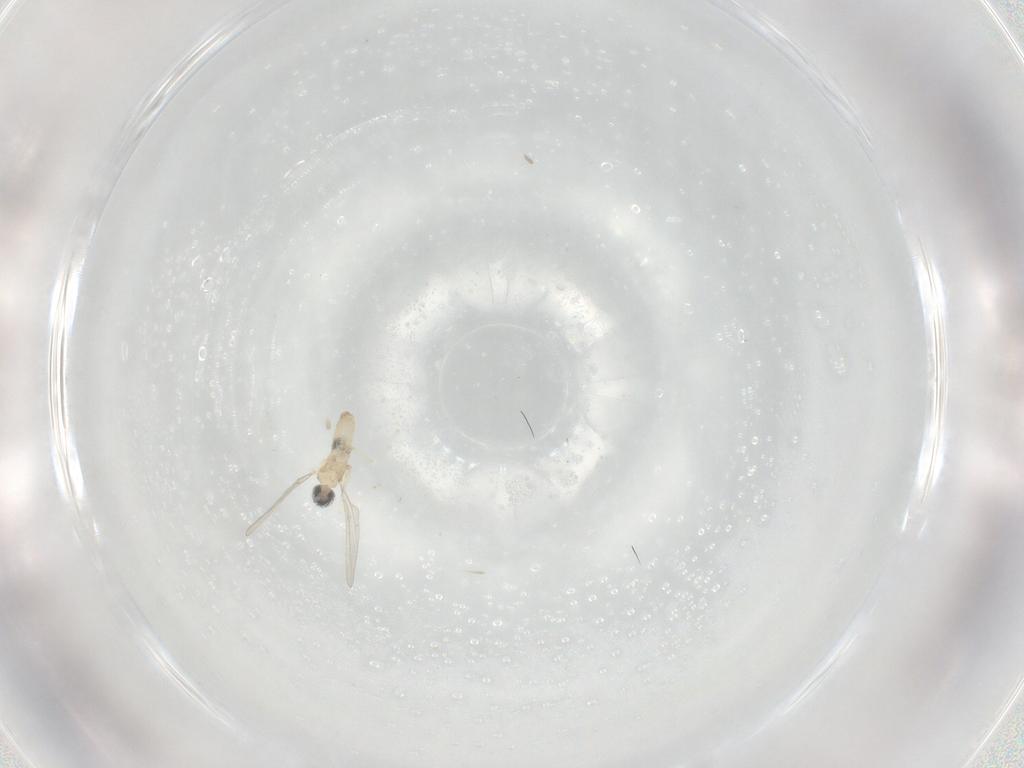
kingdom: Animalia
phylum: Arthropoda
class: Insecta
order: Diptera
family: Cecidomyiidae
